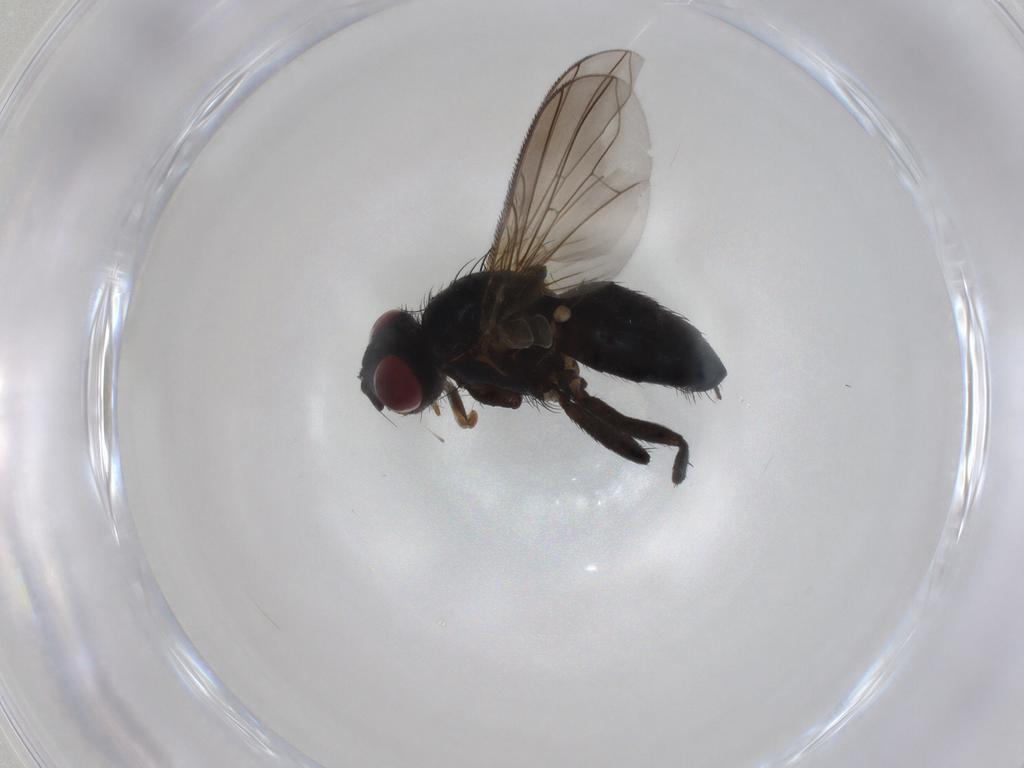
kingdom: Animalia
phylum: Arthropoda
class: Insecta
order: Diptera
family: Calliphoridae
